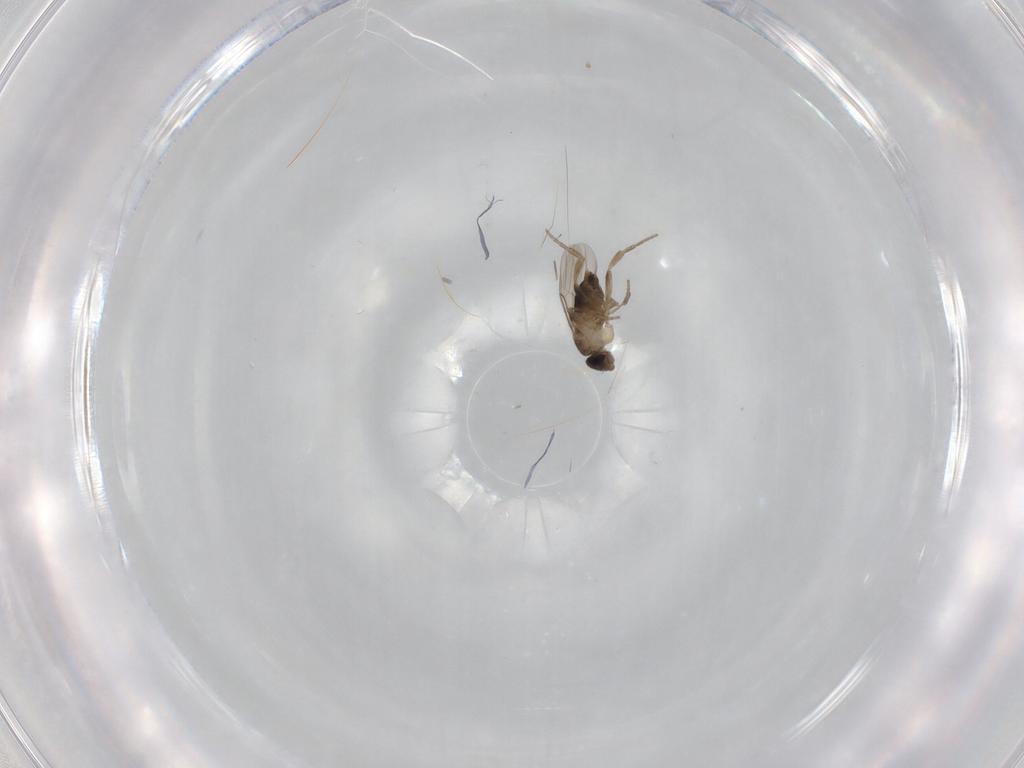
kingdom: Animalia
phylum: Arthropoda
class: Insecta
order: Diptera
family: Phoridae
